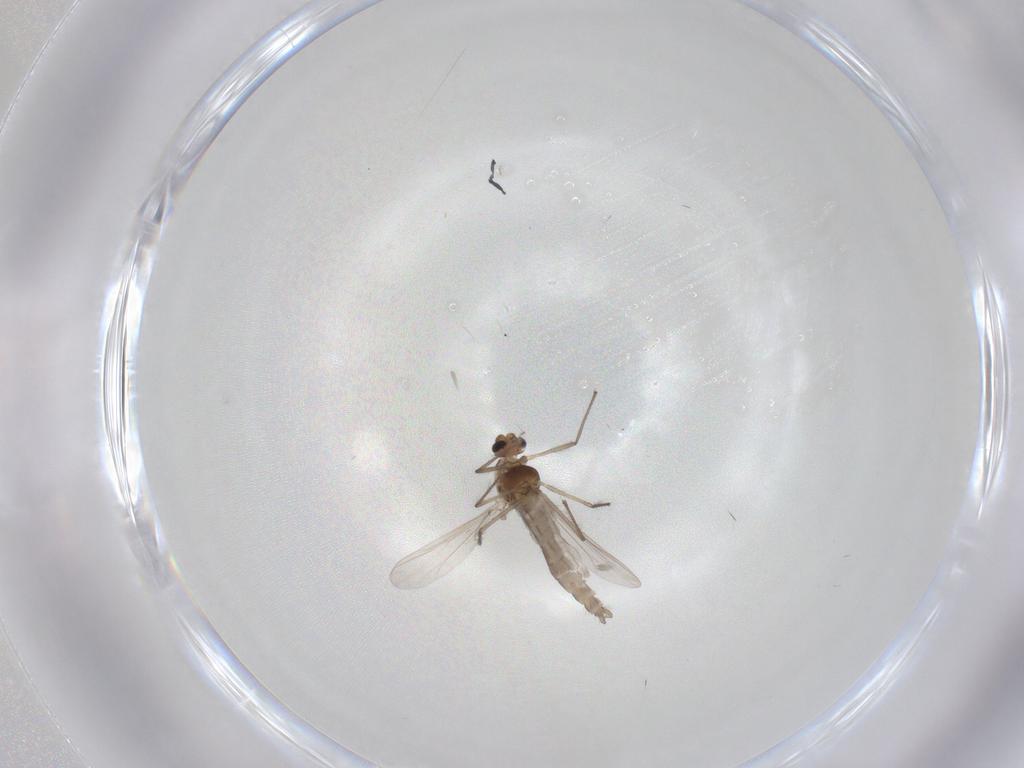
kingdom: Animalia
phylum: Arthropoda
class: Insecta
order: Diptera
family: Chironomidae
